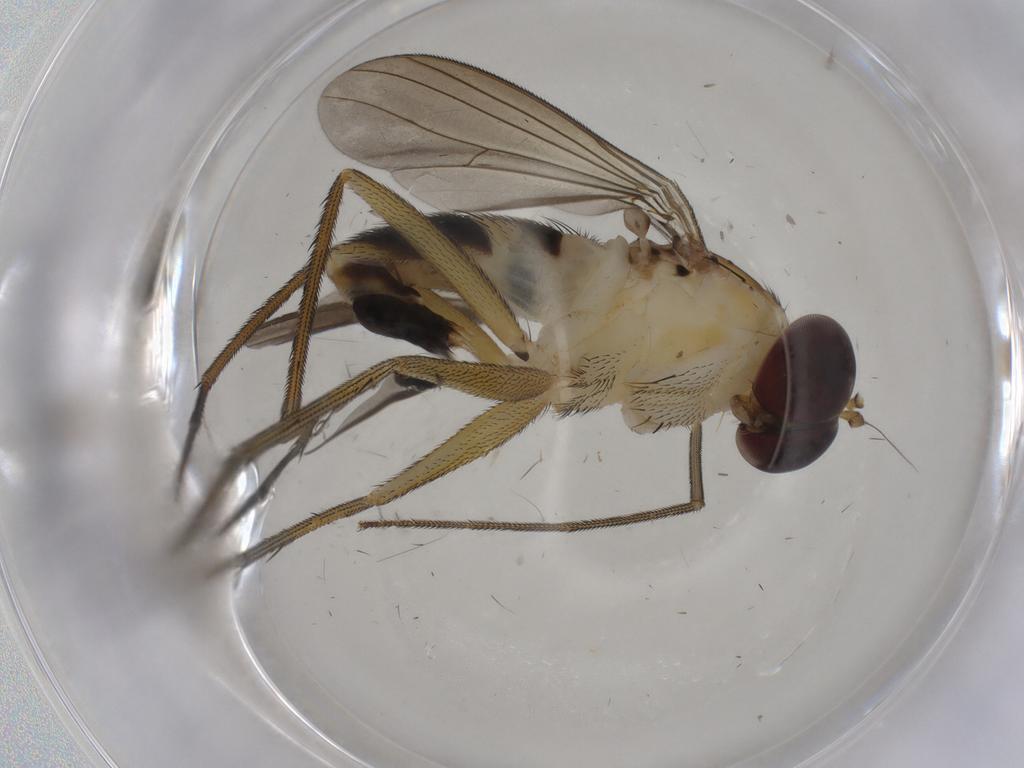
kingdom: Animalia
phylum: Arthropoda
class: Insecta
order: Diptera
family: Dolichopodidae
